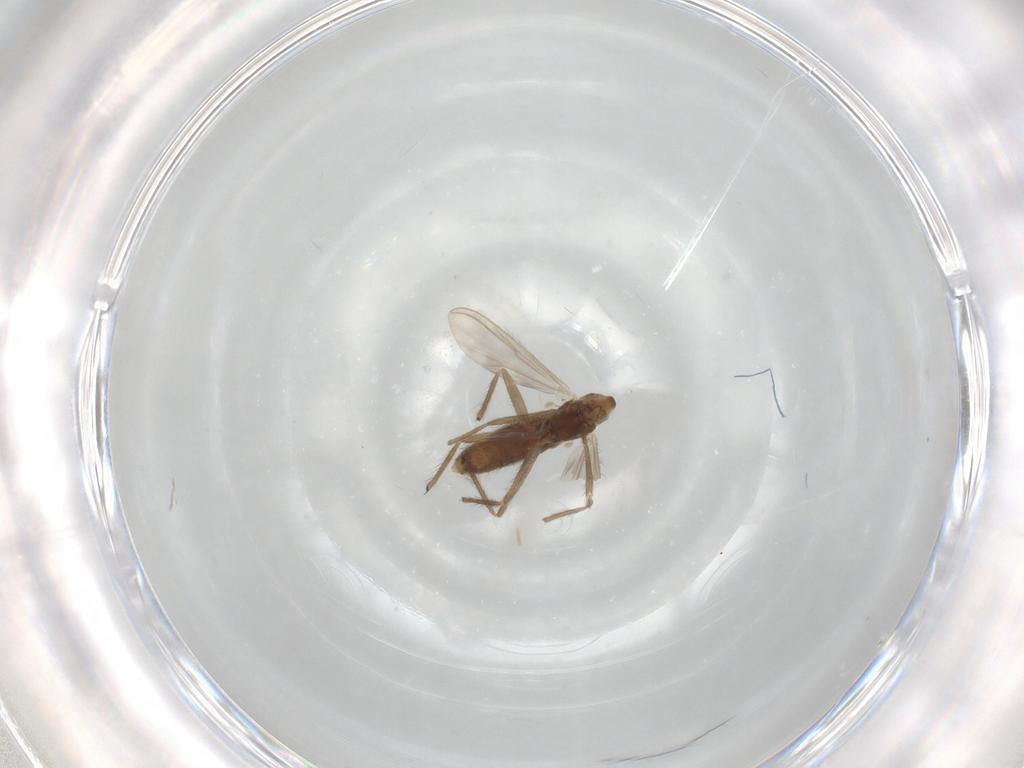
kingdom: Animalia
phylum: Arthropoda
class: Insecta
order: Diptera
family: Chironomidae
